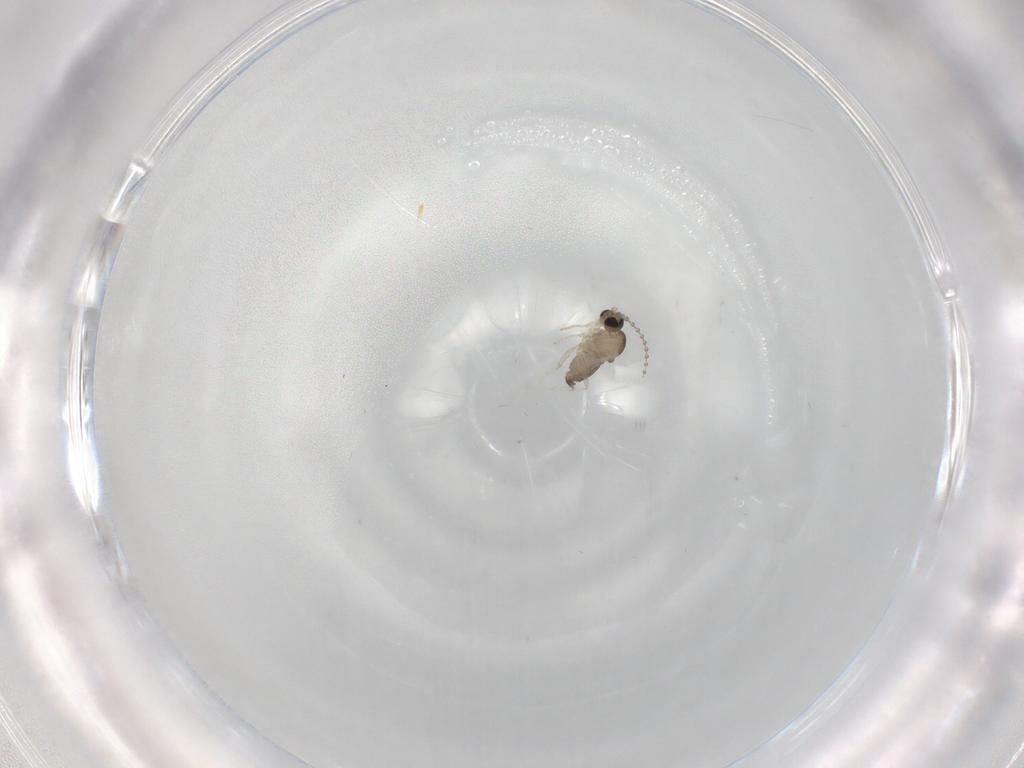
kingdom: Animalia
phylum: Arthropoda
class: Insecta
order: Diptera
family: Cecidomyiidae
